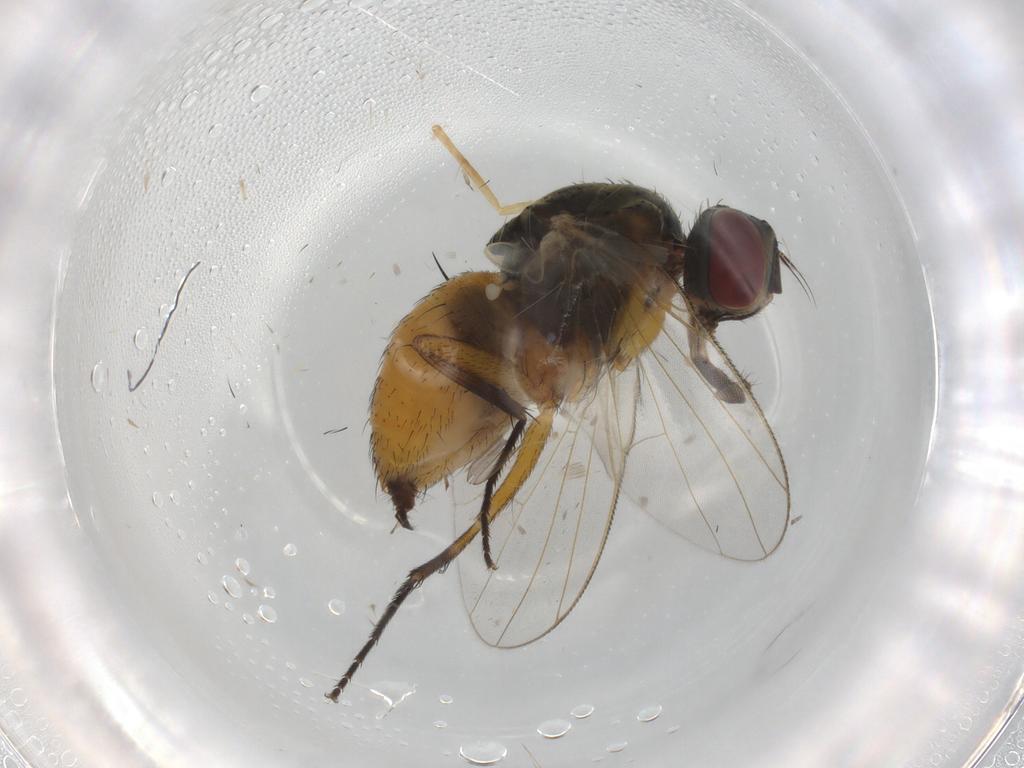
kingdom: Animalia
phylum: Arthropoda
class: Insecta
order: Diptera
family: Muscidae
